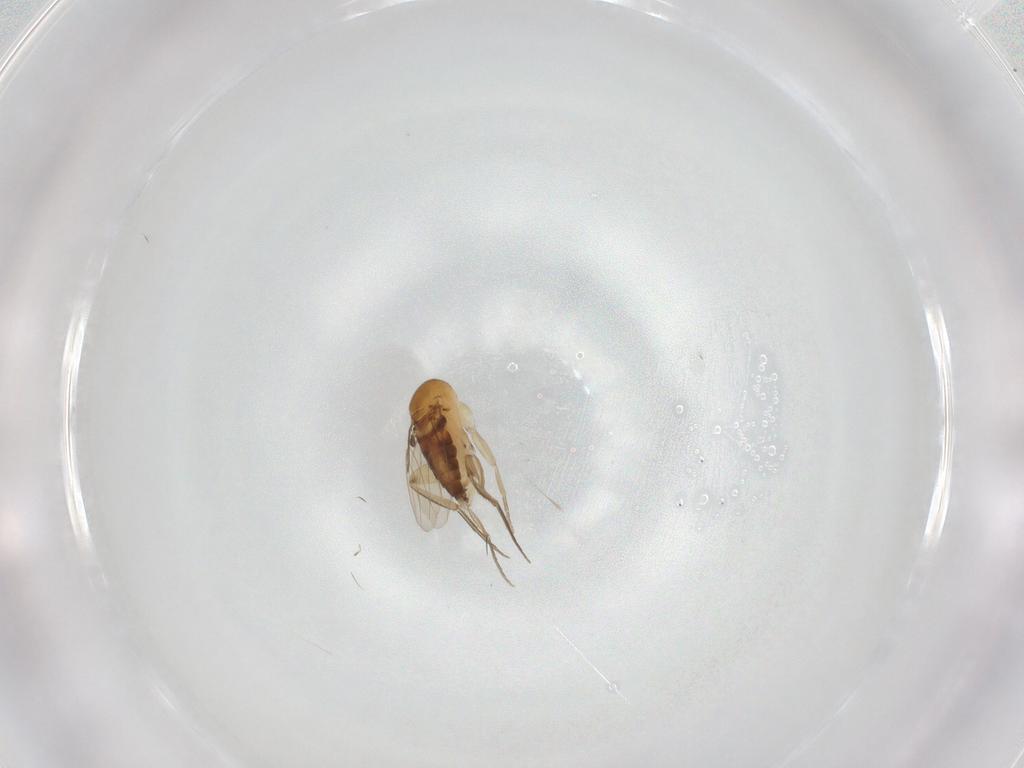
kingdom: Animalia
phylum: Arthropoda
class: Insecta
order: Diptera
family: Phoridae
